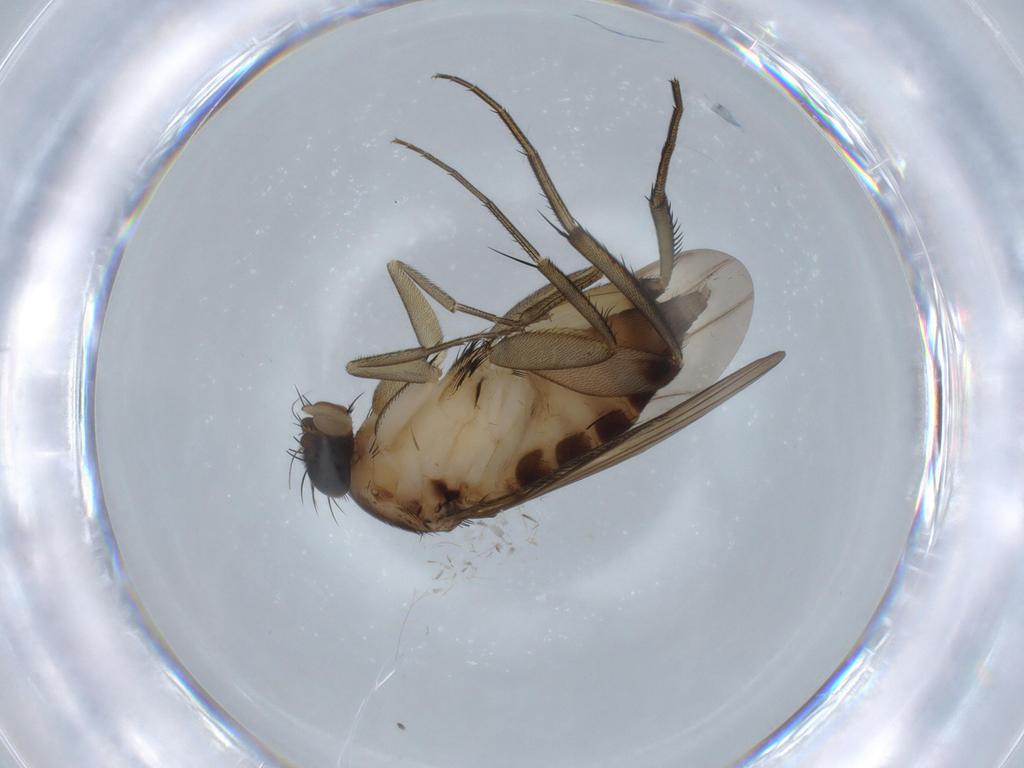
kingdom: Animalia
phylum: Arthropoda
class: Insecta
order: Diptera
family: Phoridae
